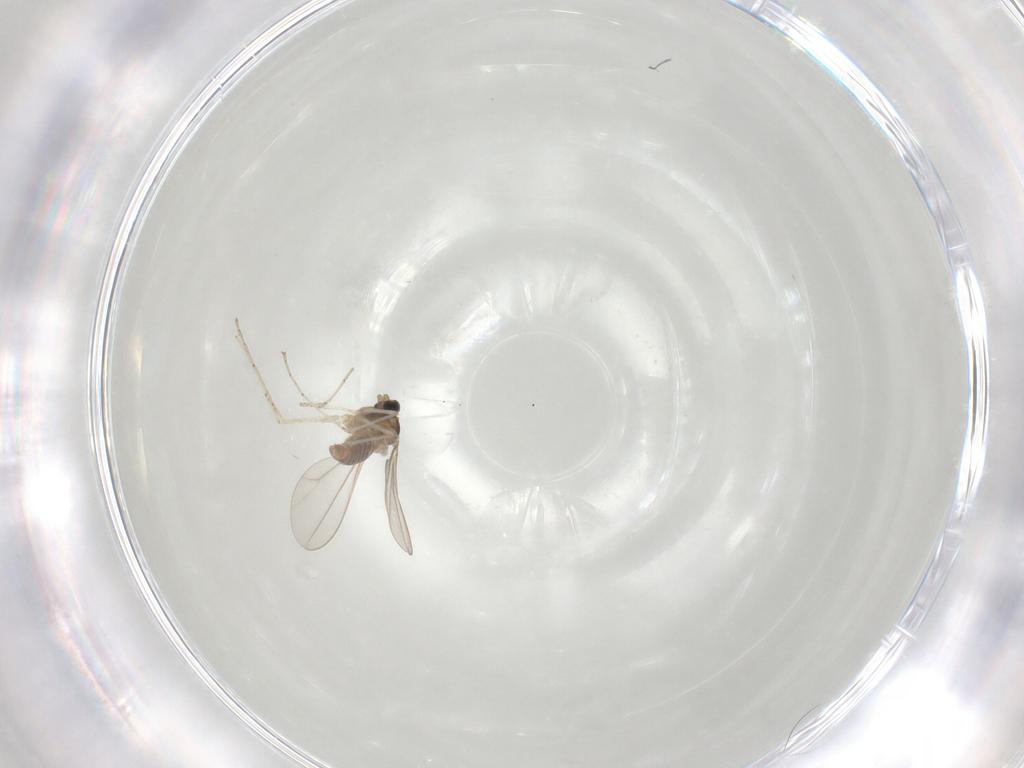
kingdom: Animalia
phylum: Arthropoda
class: Insecta
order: Diptera
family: Cecidomyiidae
